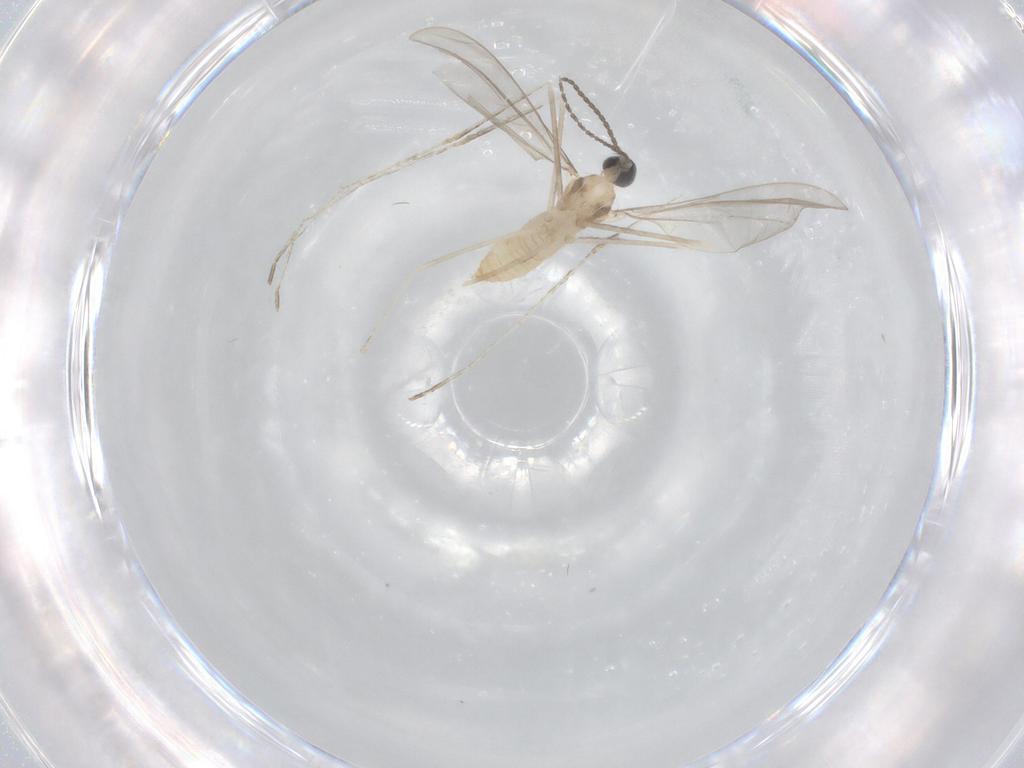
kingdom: Animalia
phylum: Arthropoda
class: Insecta
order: Diptera
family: Cecidomyiidae
